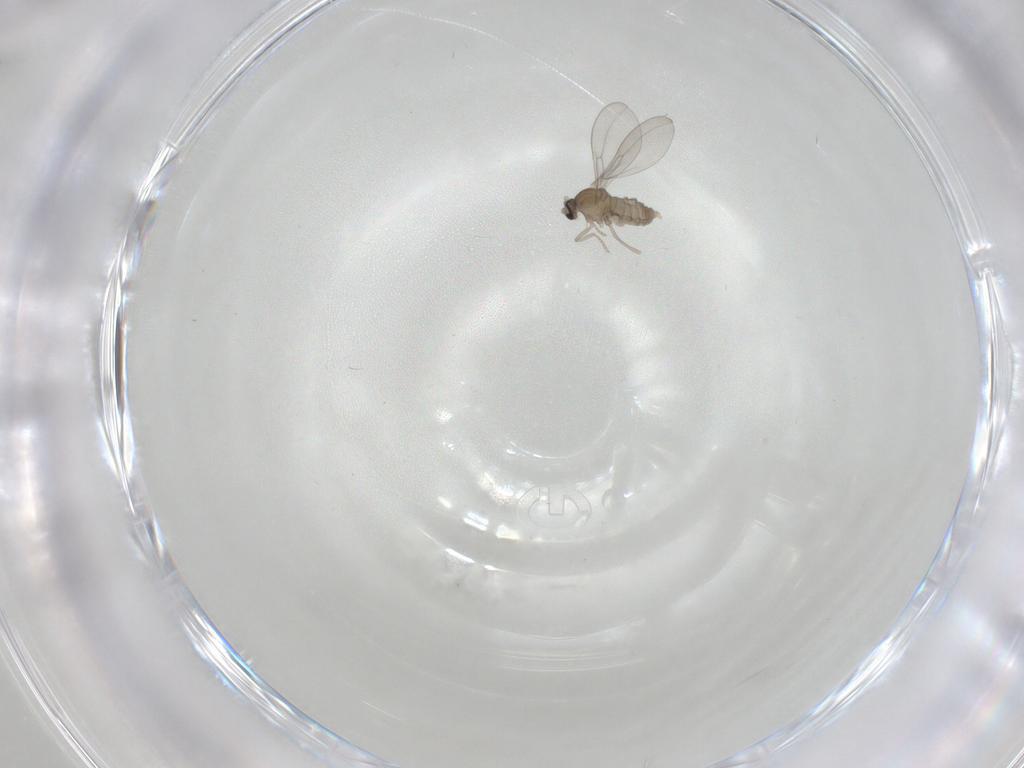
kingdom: Animalia
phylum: Arthropoda
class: Insecta
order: Diptera
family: Cecidomyiidae
